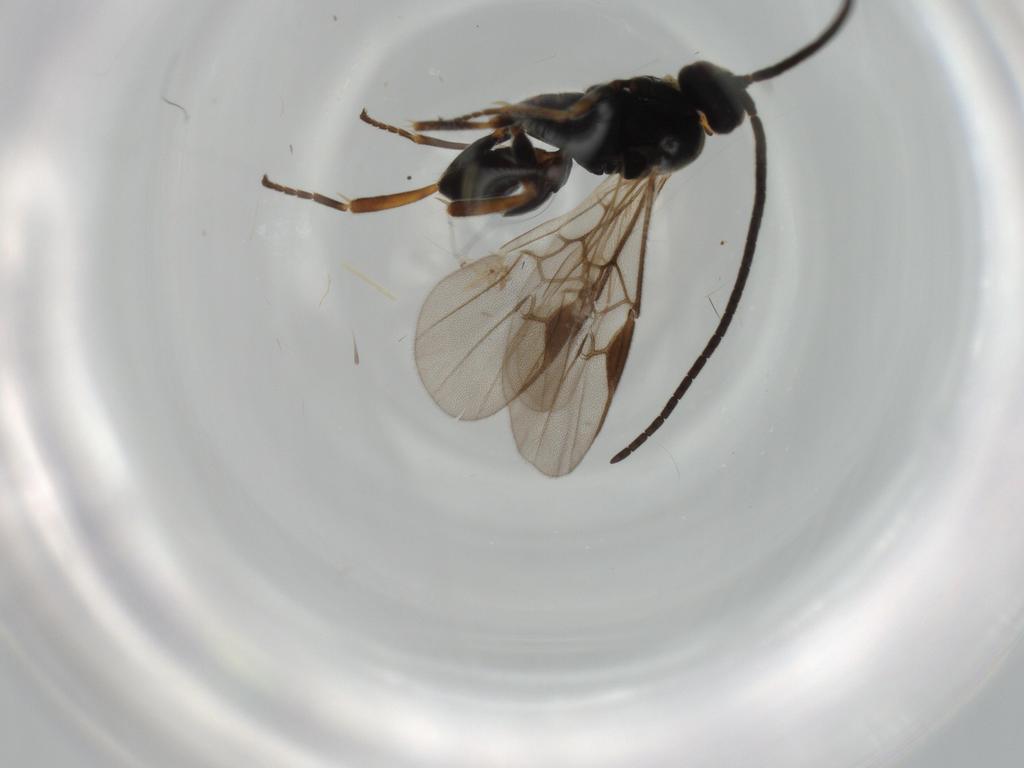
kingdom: Animalia
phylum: Arthropoda
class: Insecta
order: Hymenoptera
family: Braconidae
